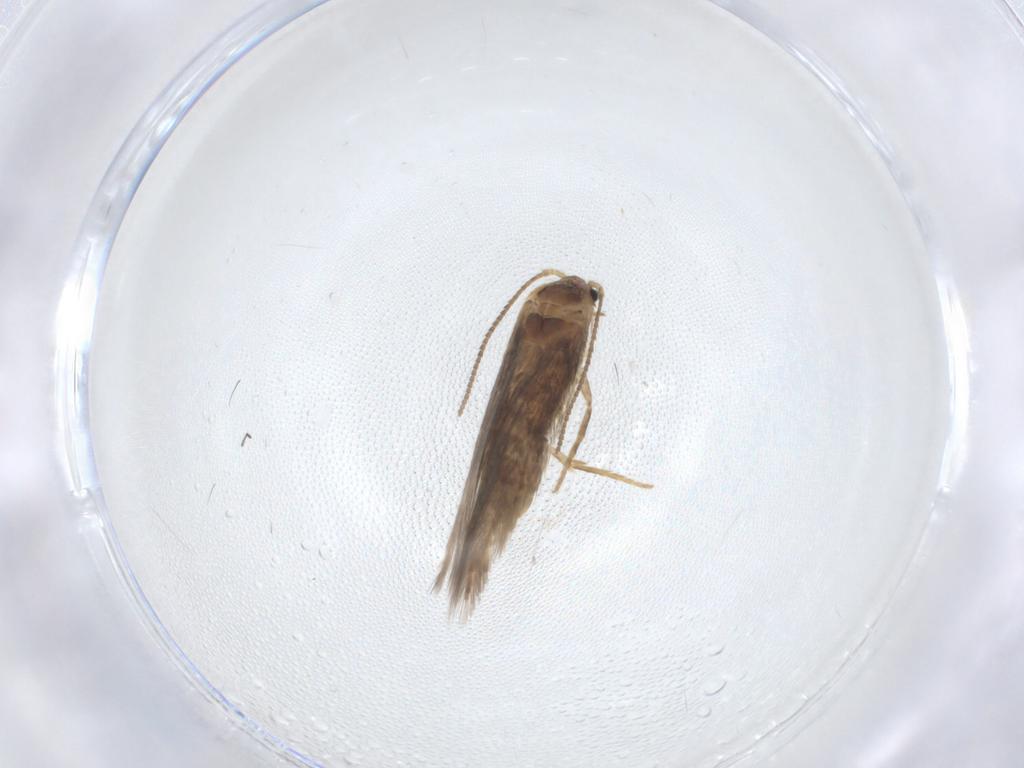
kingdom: Animalia
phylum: Arthropoda
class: Insecta
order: Lepidoptera
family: Nepticulidae
